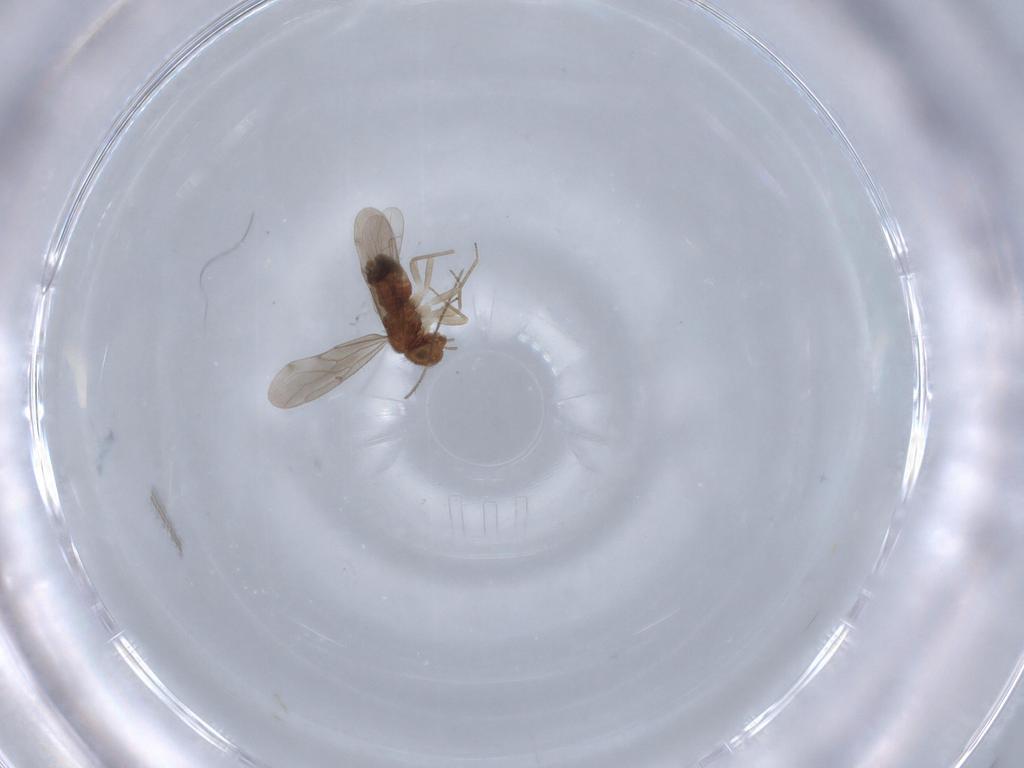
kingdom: Animalia
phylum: Arthropoda
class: Insecta
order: Psocodea
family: Ectopsocidae
